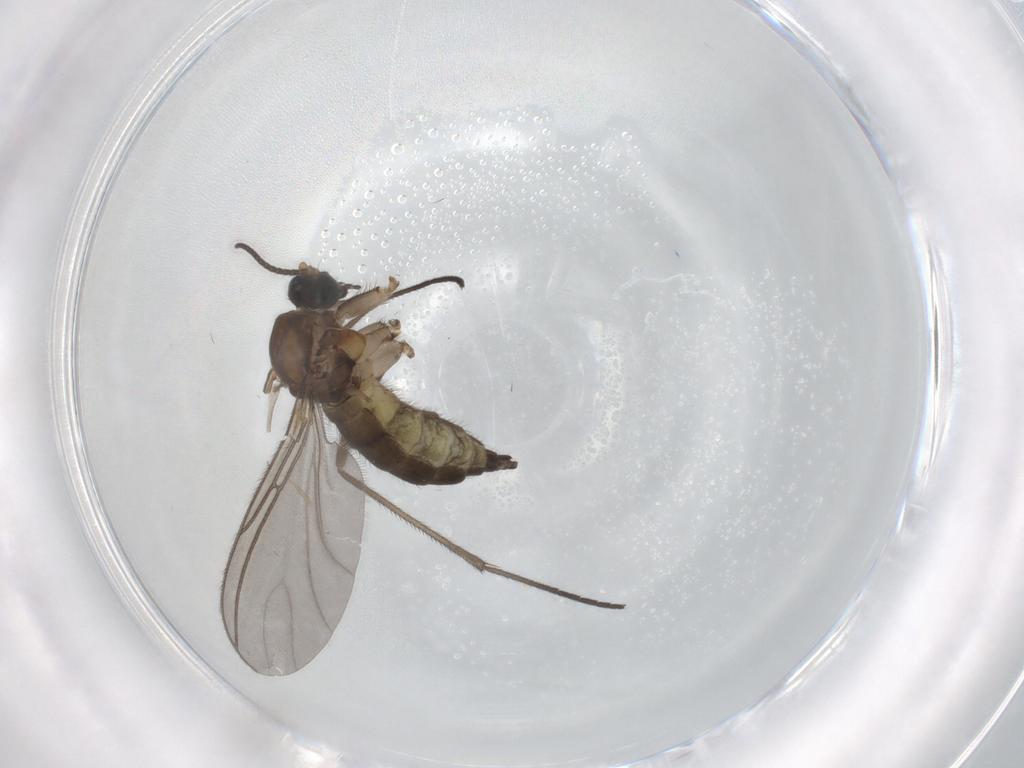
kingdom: Animalia
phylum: Arthropoda
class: Insecta
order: Diptera
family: Sciaridae
